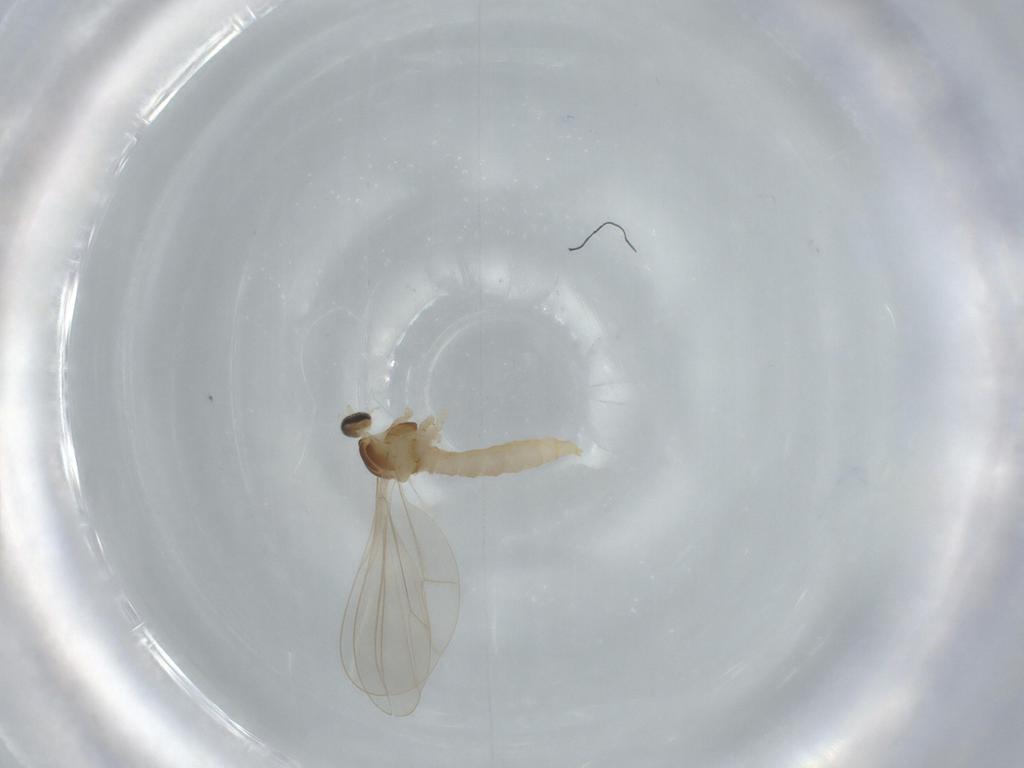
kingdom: Animalia
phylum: Arthropoda
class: Insecta
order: Diptera
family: Cecidomyiidae
